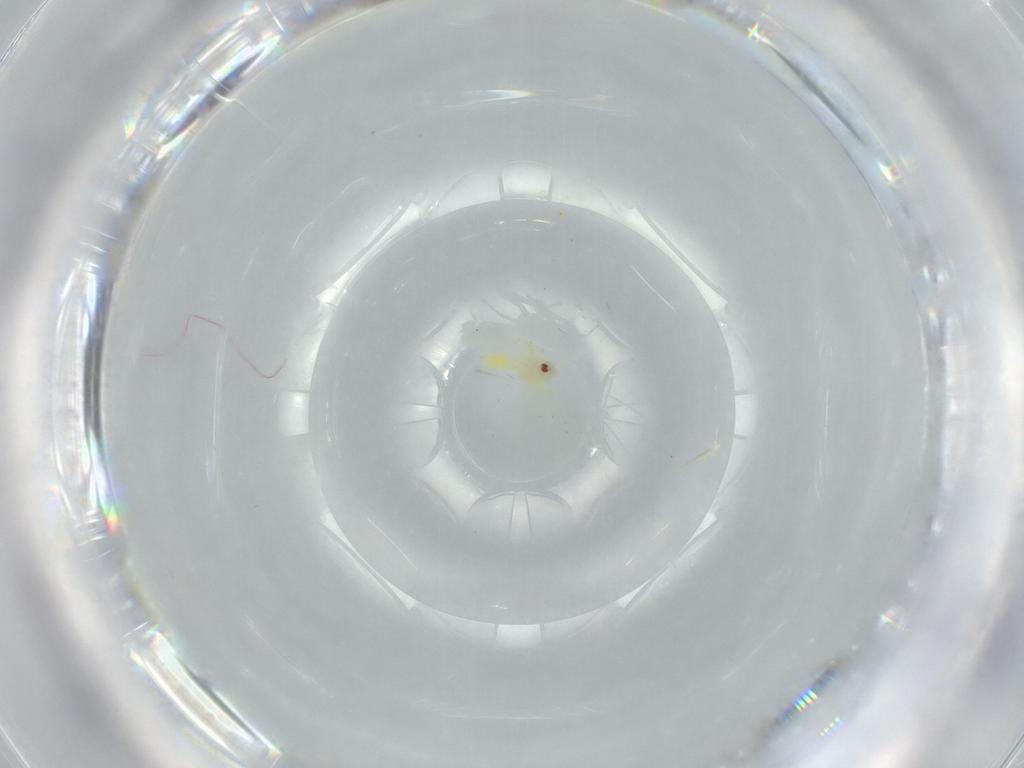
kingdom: Animalia
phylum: Arthropoda
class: Insecta
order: Hemiptera
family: Aleyrodidae
